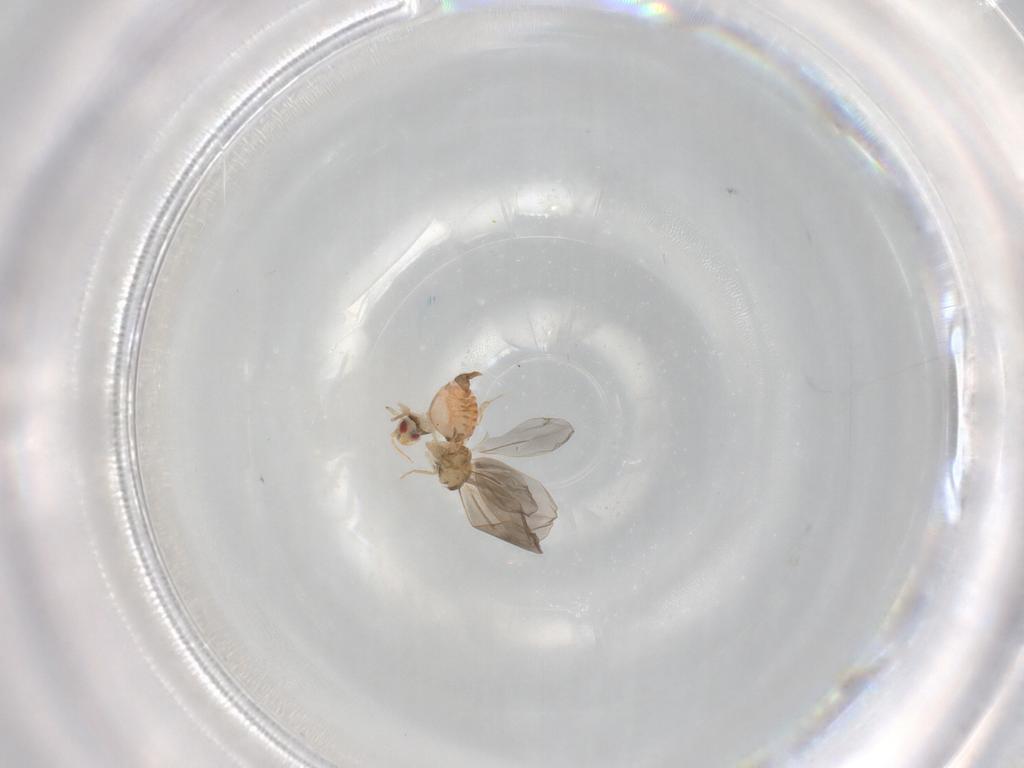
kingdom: Animalia
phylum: Arthropoda
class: Insecta
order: Diptera
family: Sciaridae
